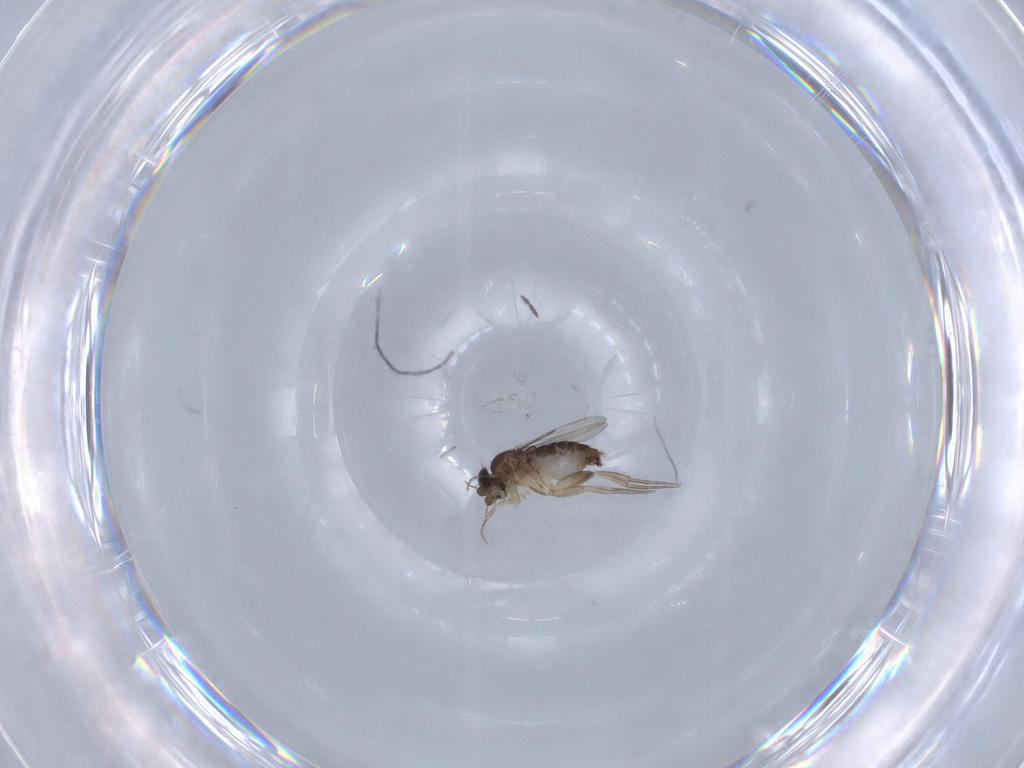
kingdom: Animalia
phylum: Arthropoda
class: Insecta
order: Diptera
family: Phoridae
